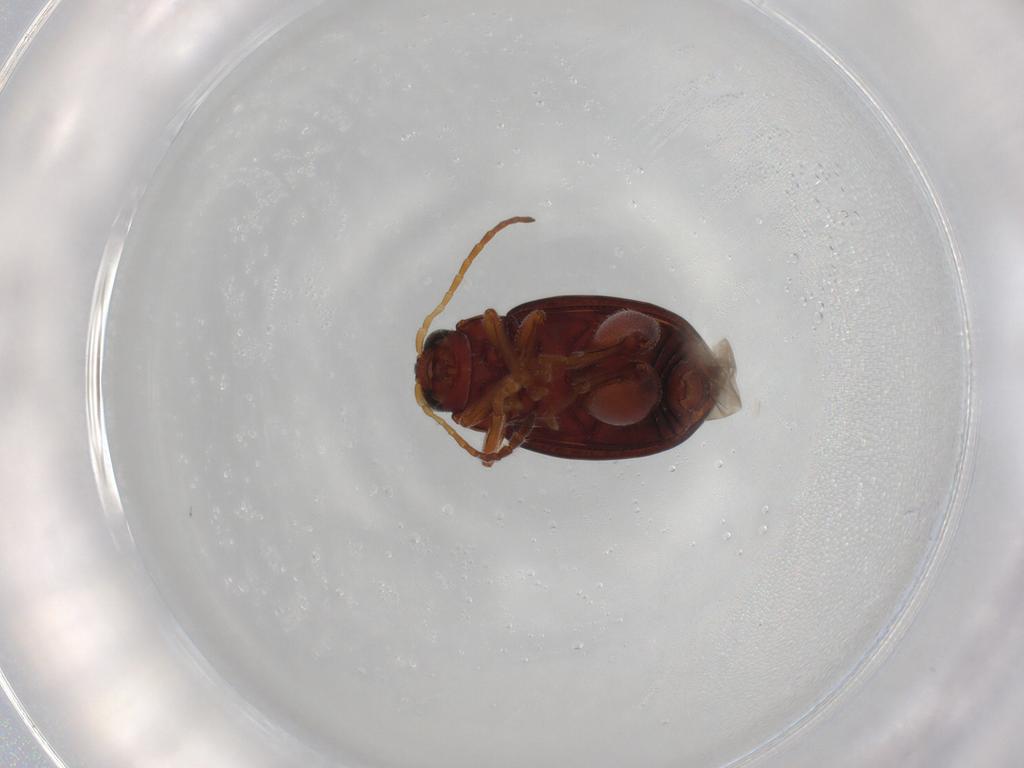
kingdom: Animalia
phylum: Arthropoda
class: Insecta
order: Coleoptera
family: Chrysomelidae
